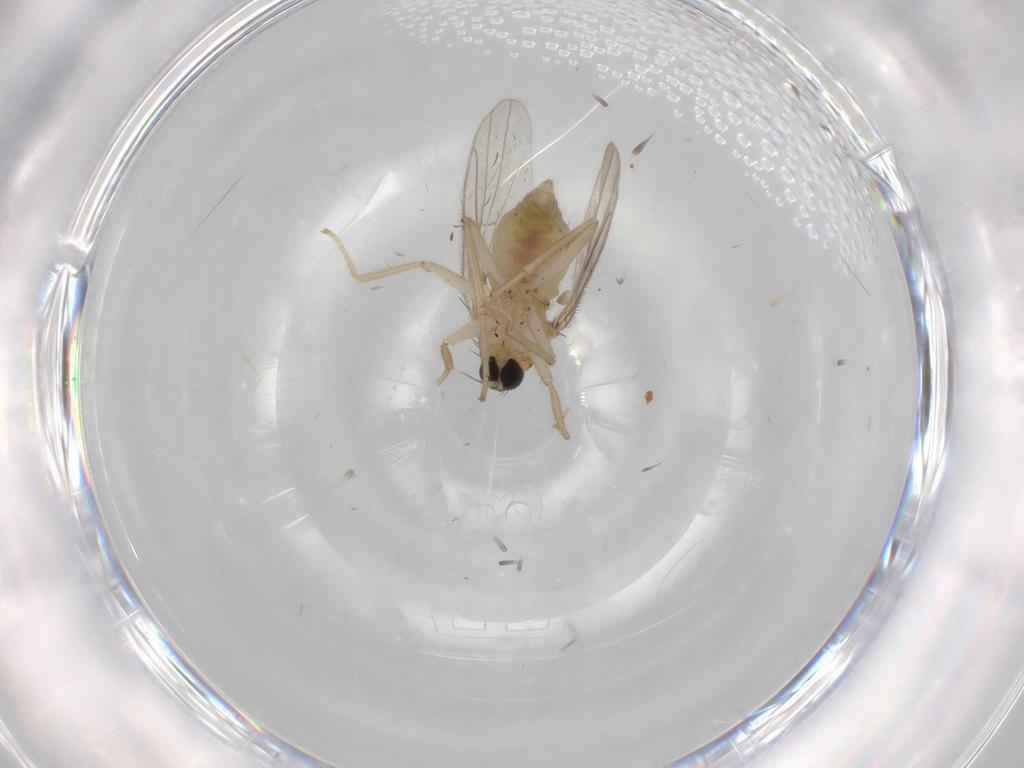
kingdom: Animalia
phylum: Arthropoda
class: Insecta
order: Diptera
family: Hybotidae
